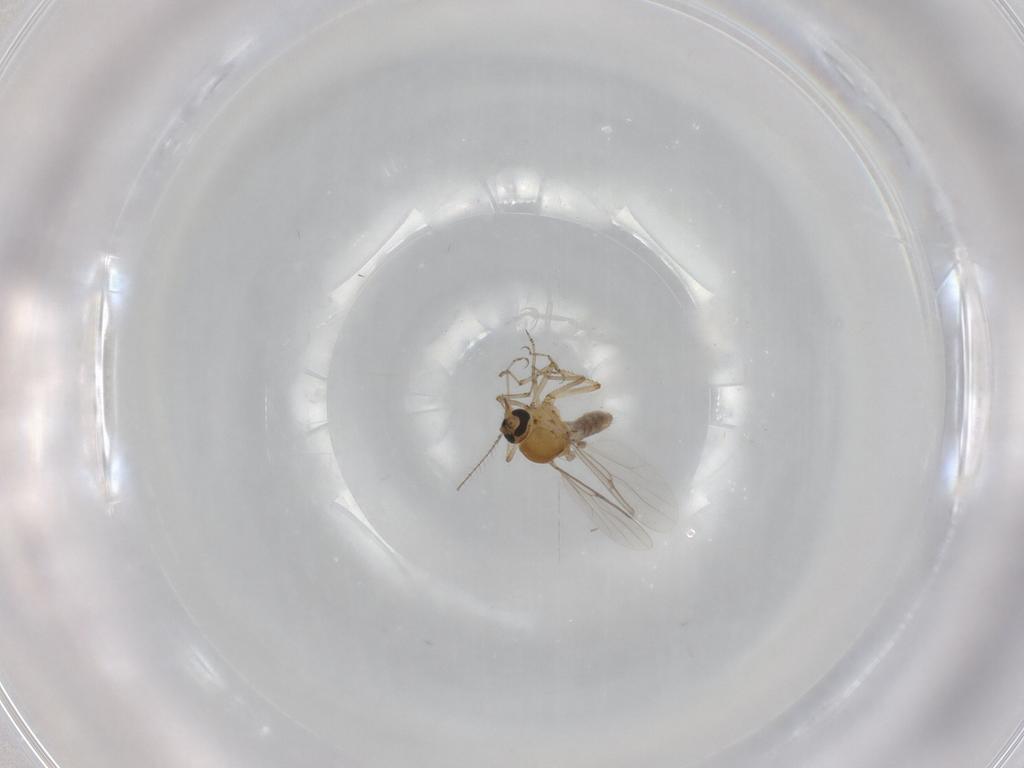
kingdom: Animalia
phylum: Arthropoda
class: Insecta
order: Diptera
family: Ceratopogonidae
